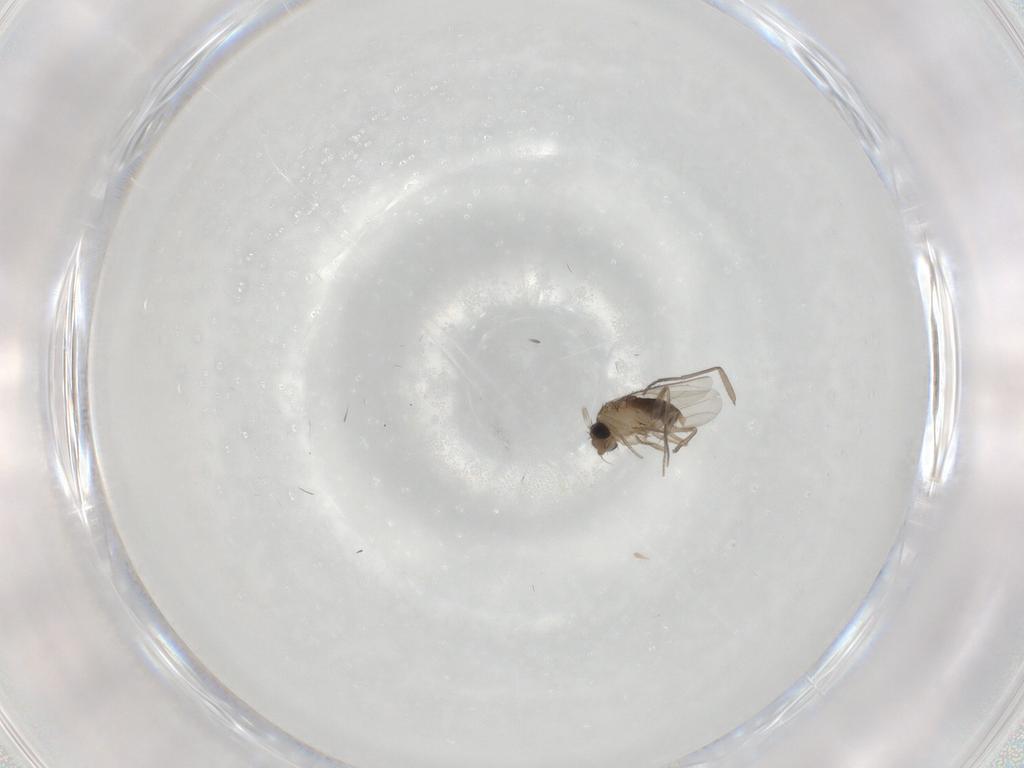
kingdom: Animalia
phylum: Arthropoda
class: Insecta
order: Diptera
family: Phoridae
